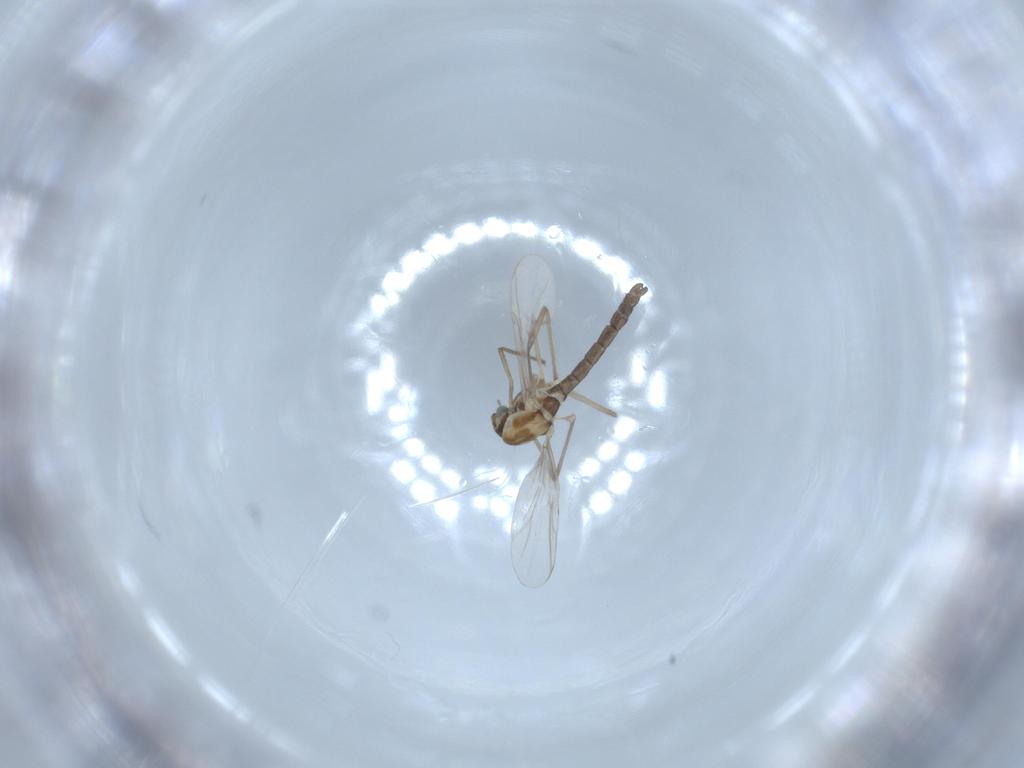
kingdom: Animalia
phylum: Arthropoda
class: Insecta
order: Diptera
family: Chironomidae
